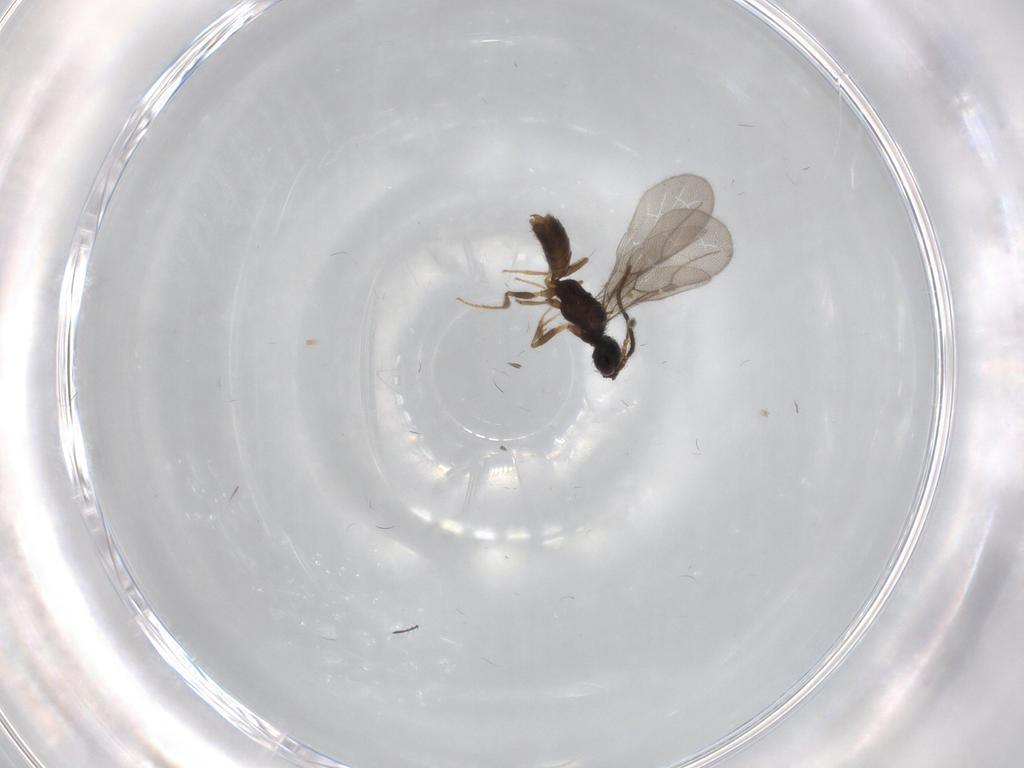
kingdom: Animalia
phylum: Arthropoda
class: Insecta
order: Hymenoptera
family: Bethylidae
